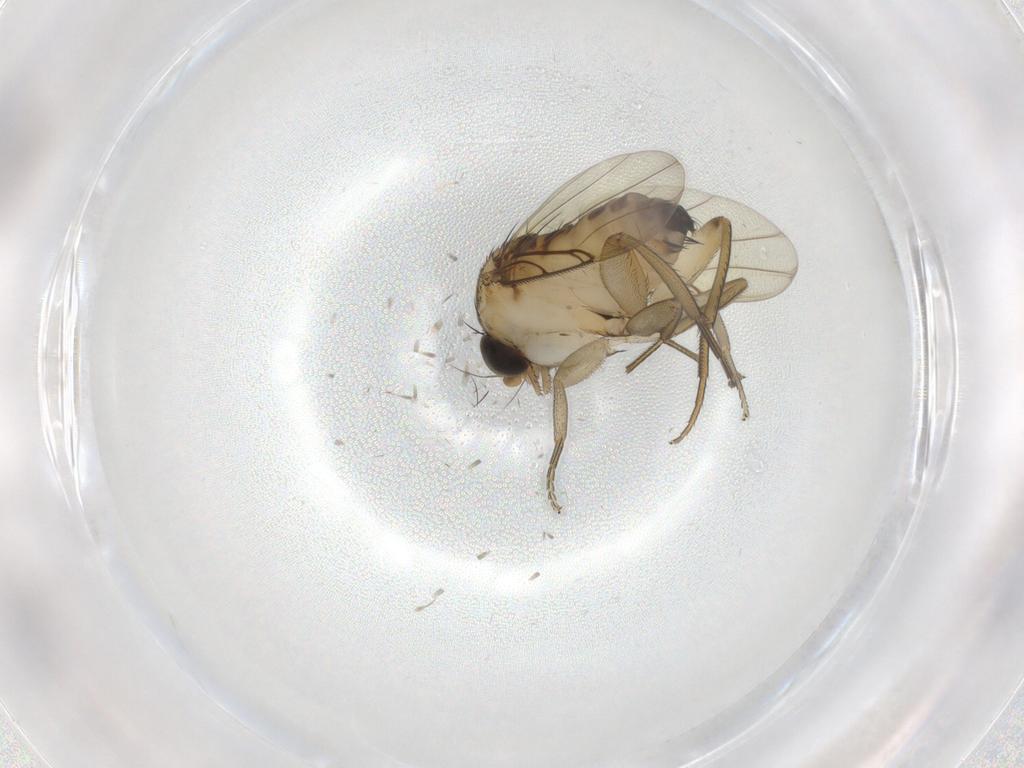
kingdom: Animalia
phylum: Arthropoda
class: Insecta
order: Diptera
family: Phoridae
